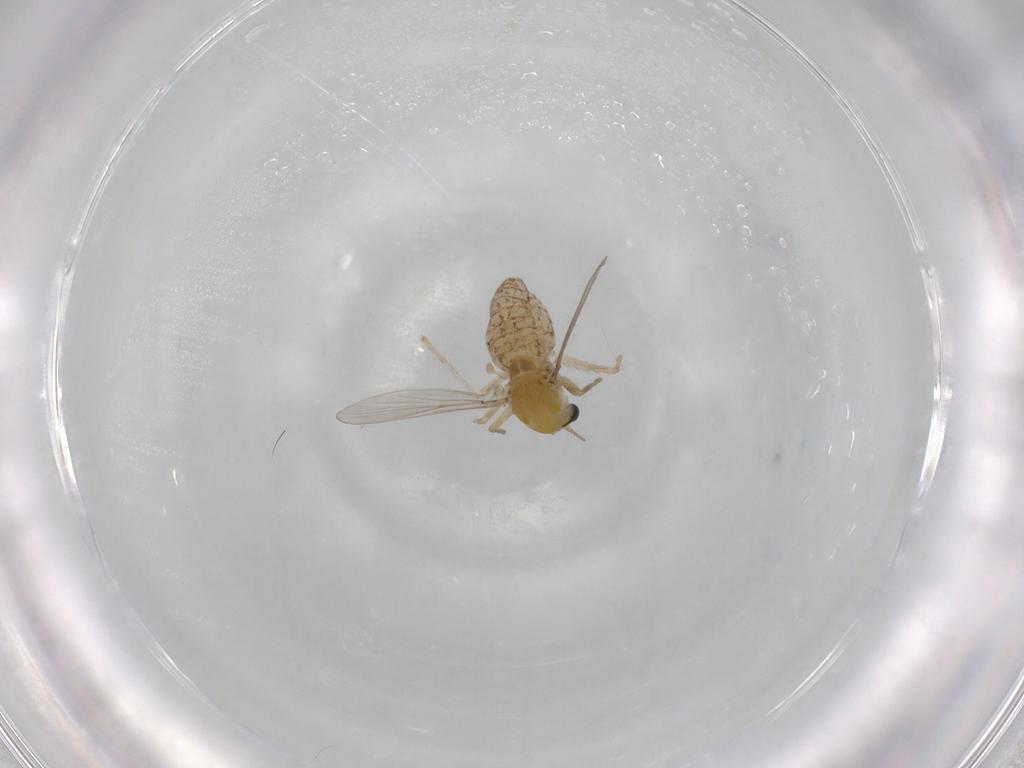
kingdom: Animalia
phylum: Arthropoda
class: Insecta
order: Diptera
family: Chironomidae
